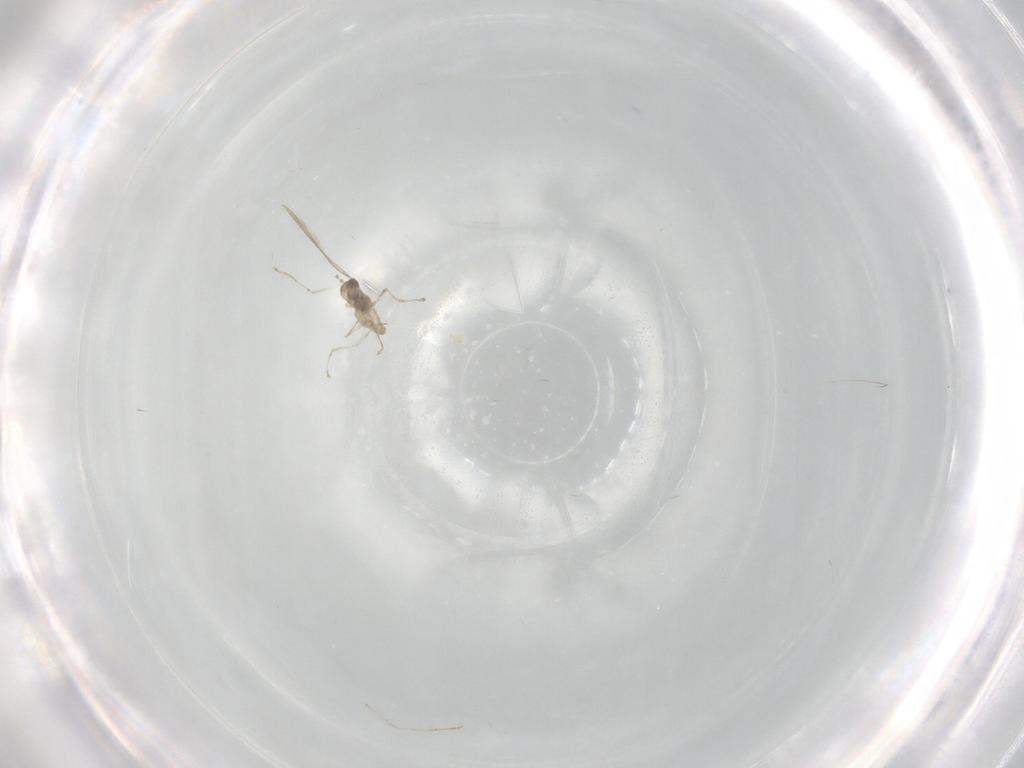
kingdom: Animalia
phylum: Arthropoda
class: Insecta
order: Diptera
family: Cecidomyiidae
